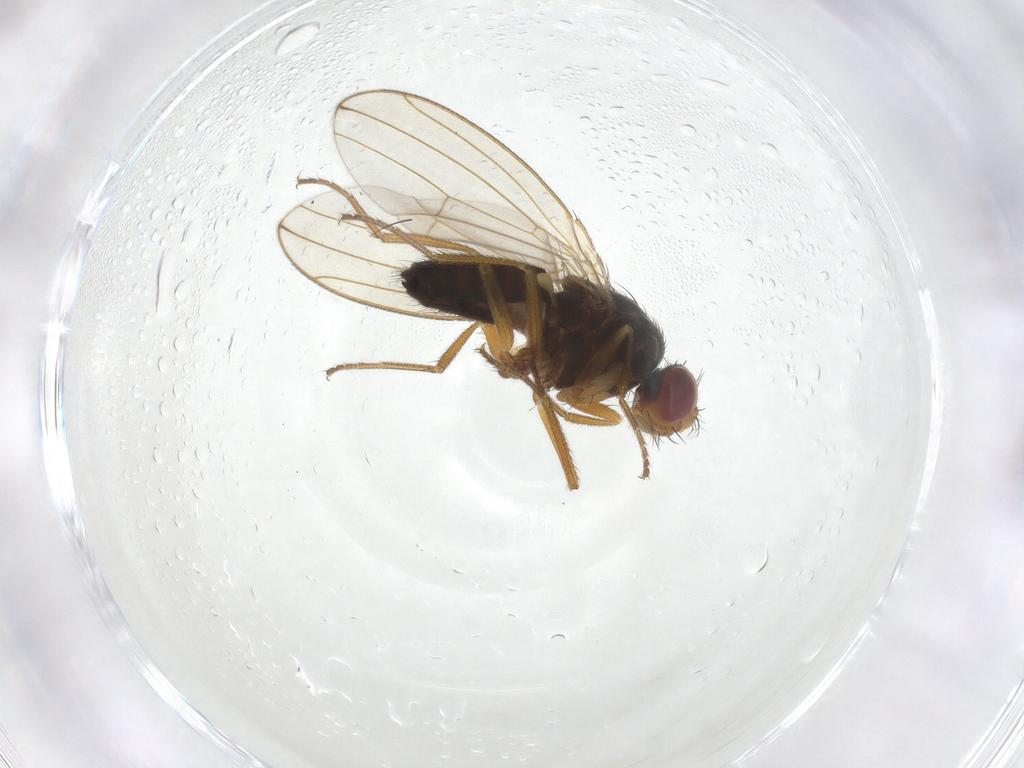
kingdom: Animalia
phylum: Arthropoda
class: Insecta
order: Diptera
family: Drosophilidae
